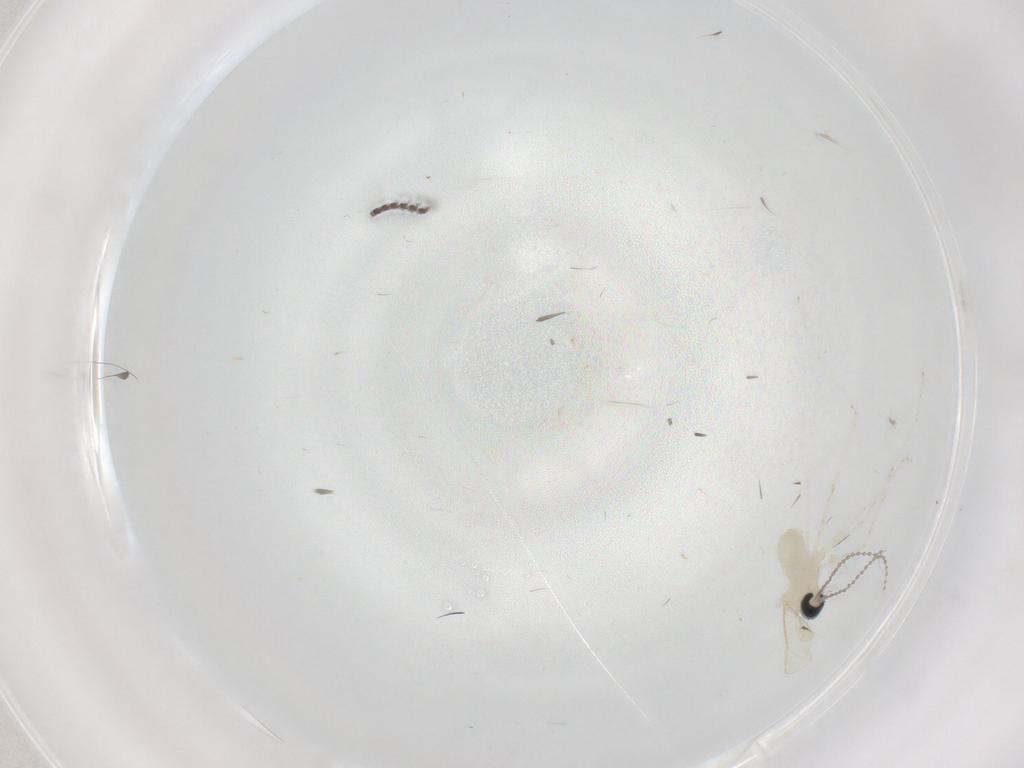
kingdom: Animalia
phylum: Arthropoda
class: Insecta
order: Diptera
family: Cecidomyiidae
